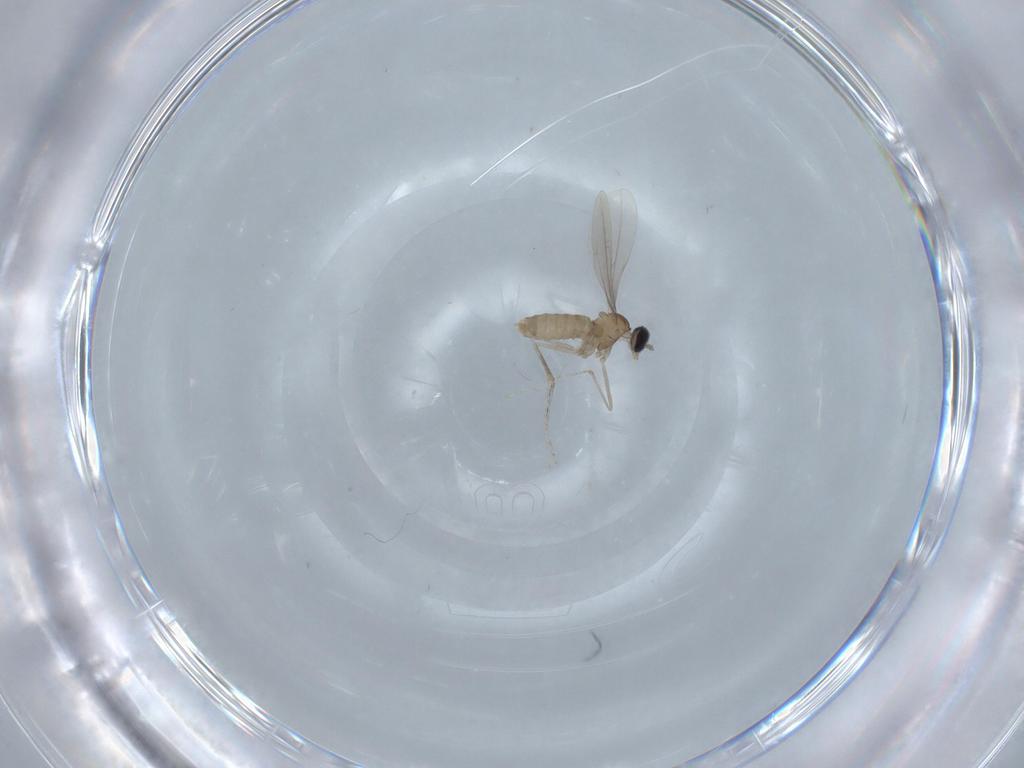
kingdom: Animalia
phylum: Arthropoda
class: Insecta
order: Diptera
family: Cecidomyiidae
